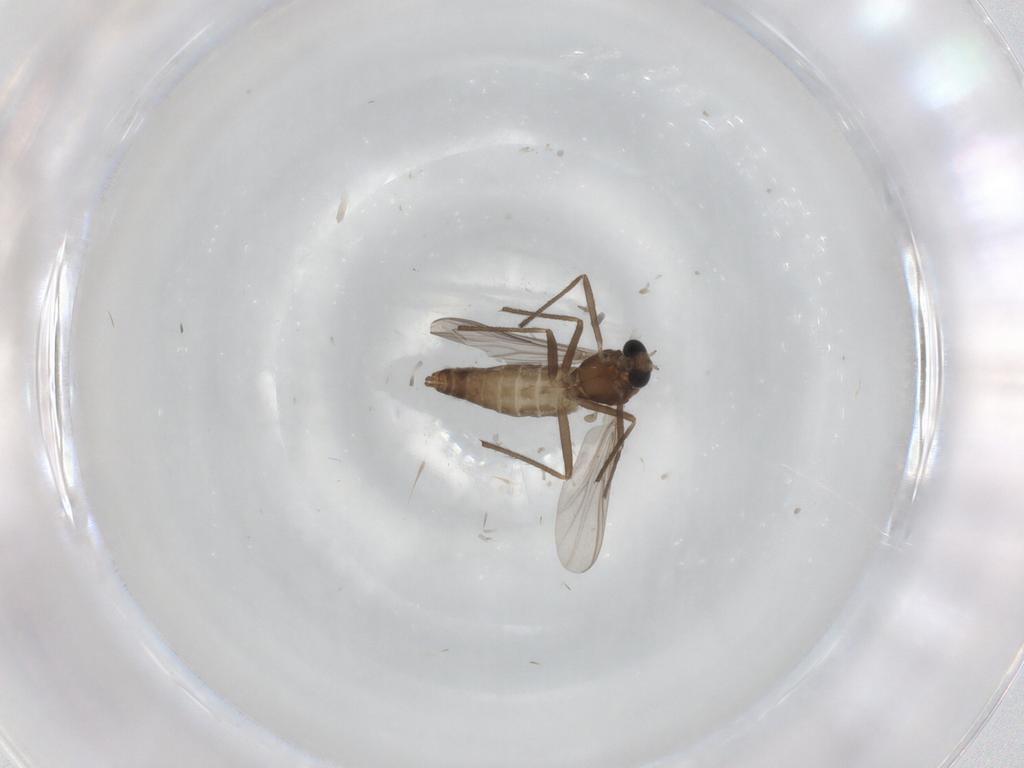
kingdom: Animalia
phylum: Arthropoda
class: Insecta
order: Diptera
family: Chironomidae
